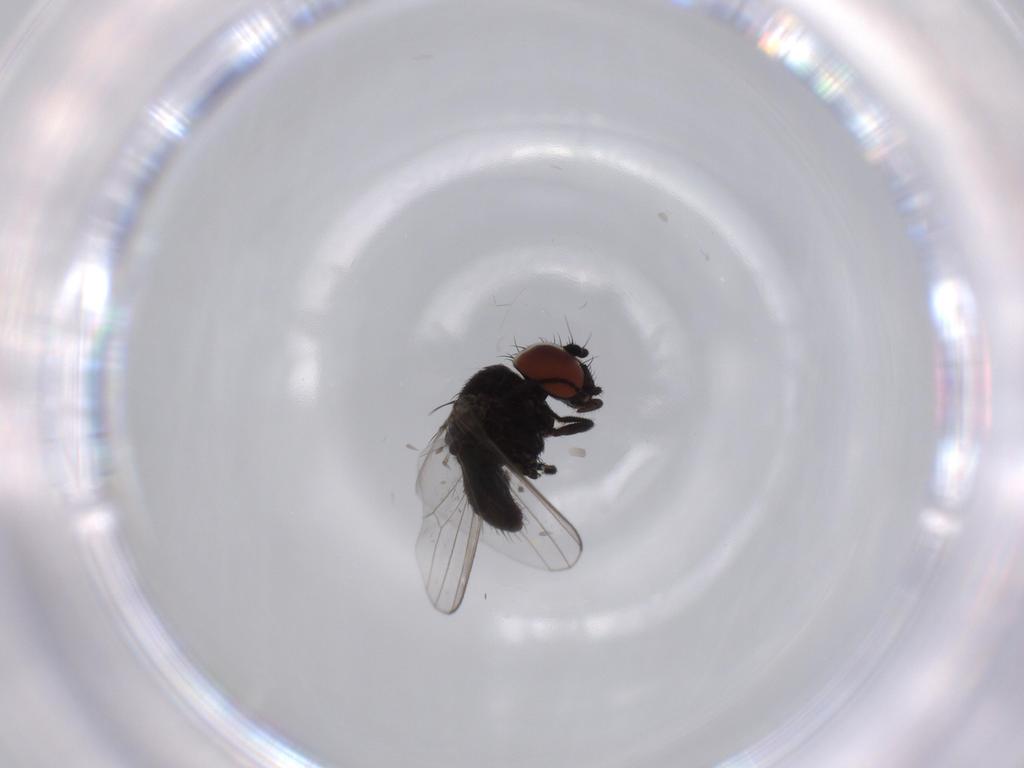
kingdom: Animalia
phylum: Arthropoda
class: Insecta
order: Diptera
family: Milichiidae
